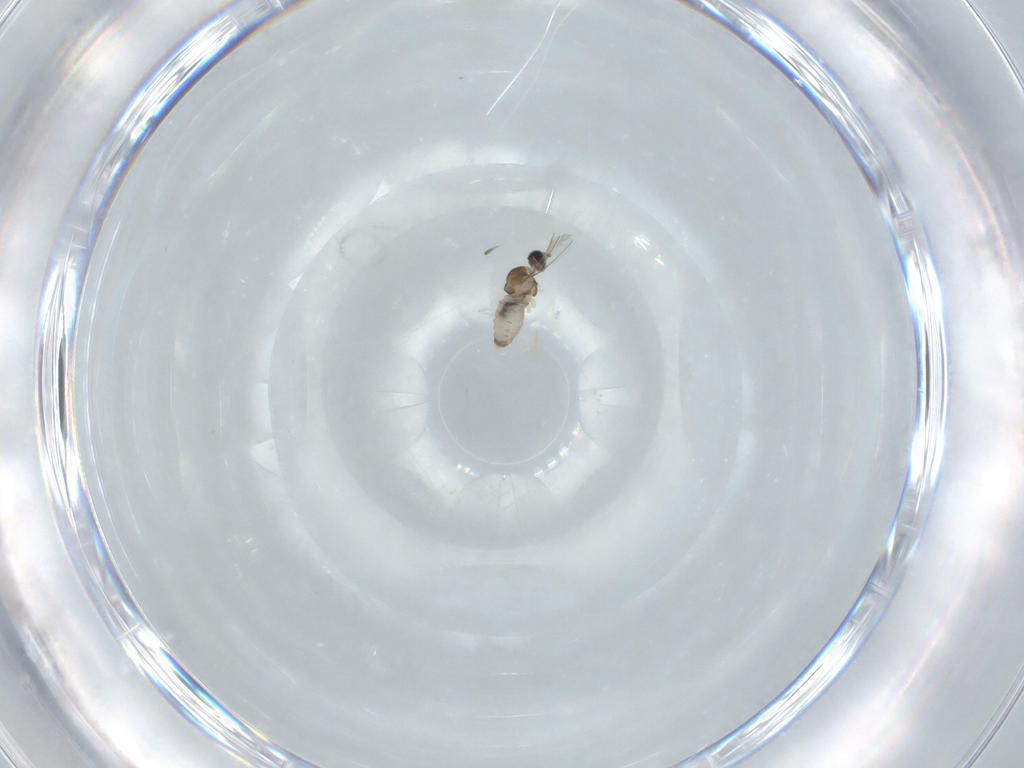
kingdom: Animalia
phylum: Arthropoda
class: Insecta
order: Diptera
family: Cecidomyiidae
